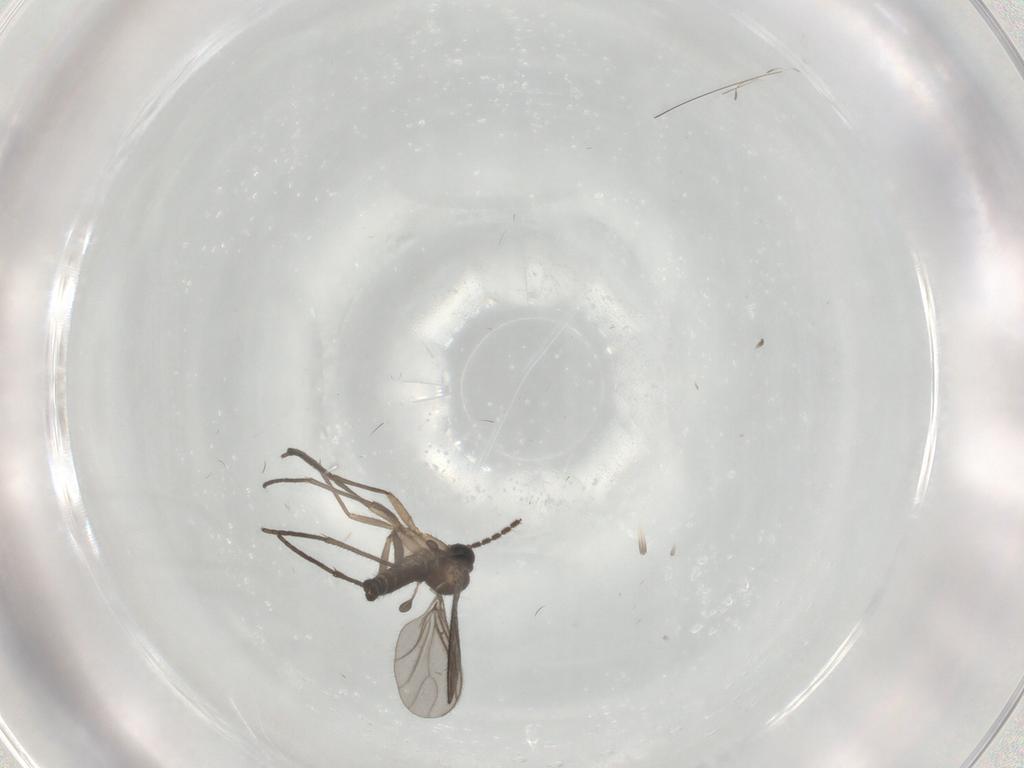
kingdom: Animalia
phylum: Arthropoda
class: Insecta
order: Diptera
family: Sciaridae
